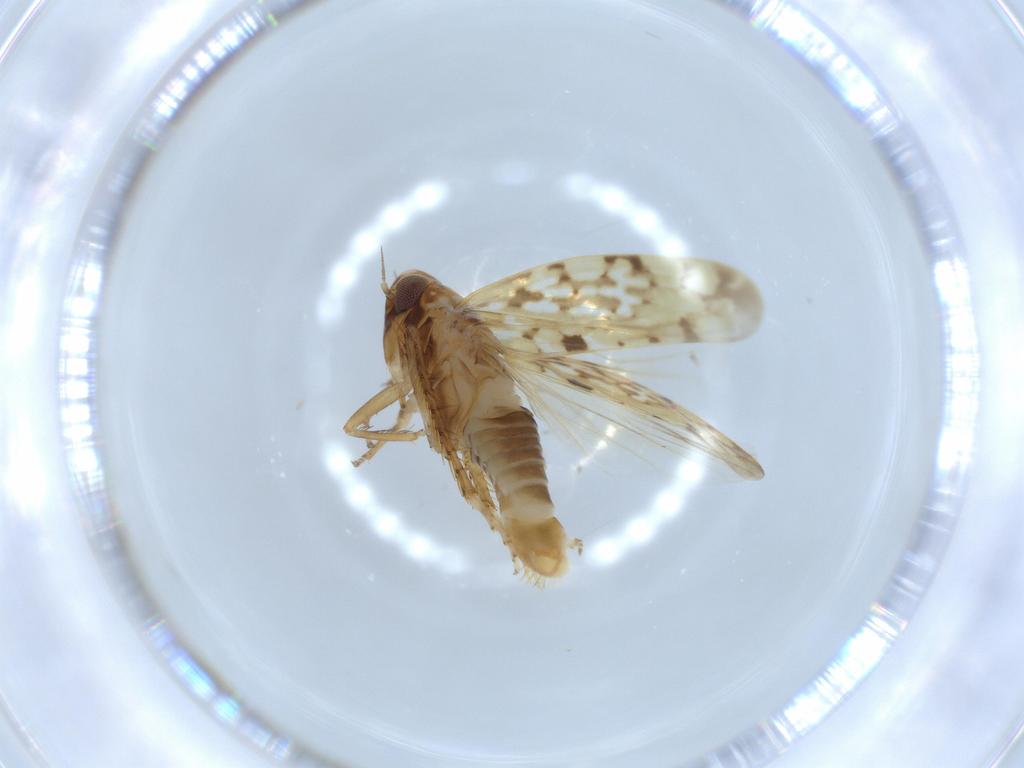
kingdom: Animalia
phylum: Arthropoda
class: Insecta
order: Hemiptera
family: Cicadellidae
